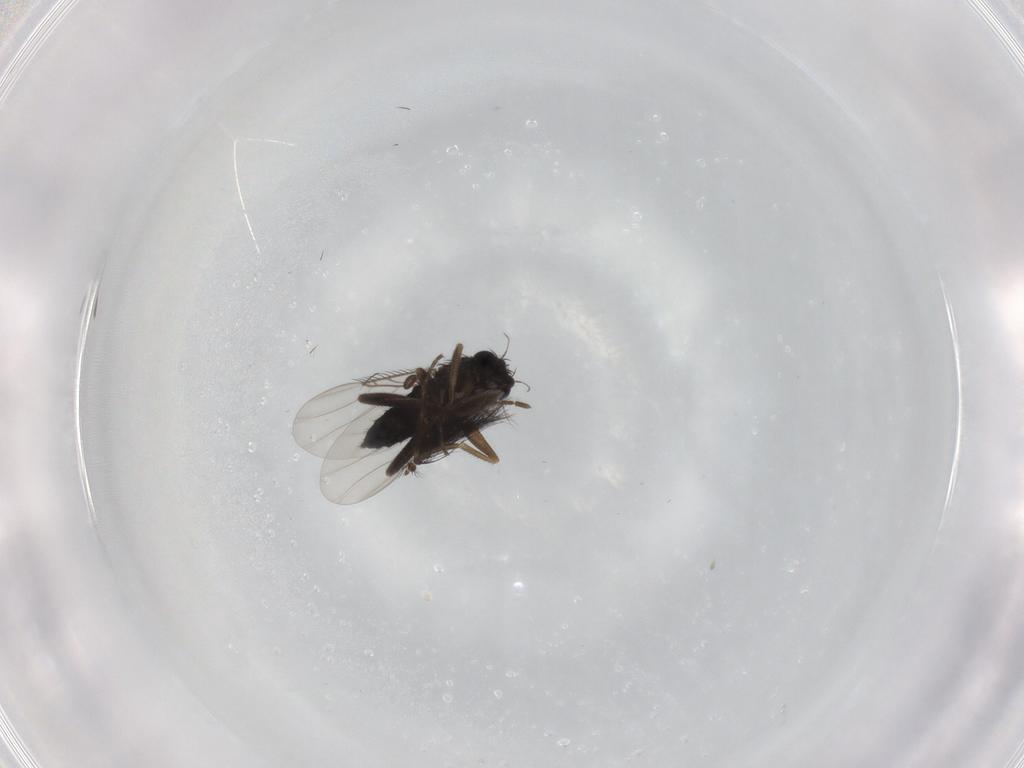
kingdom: Animalia
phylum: Arthropoda
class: Insecta
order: Diptera
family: Phoridae
